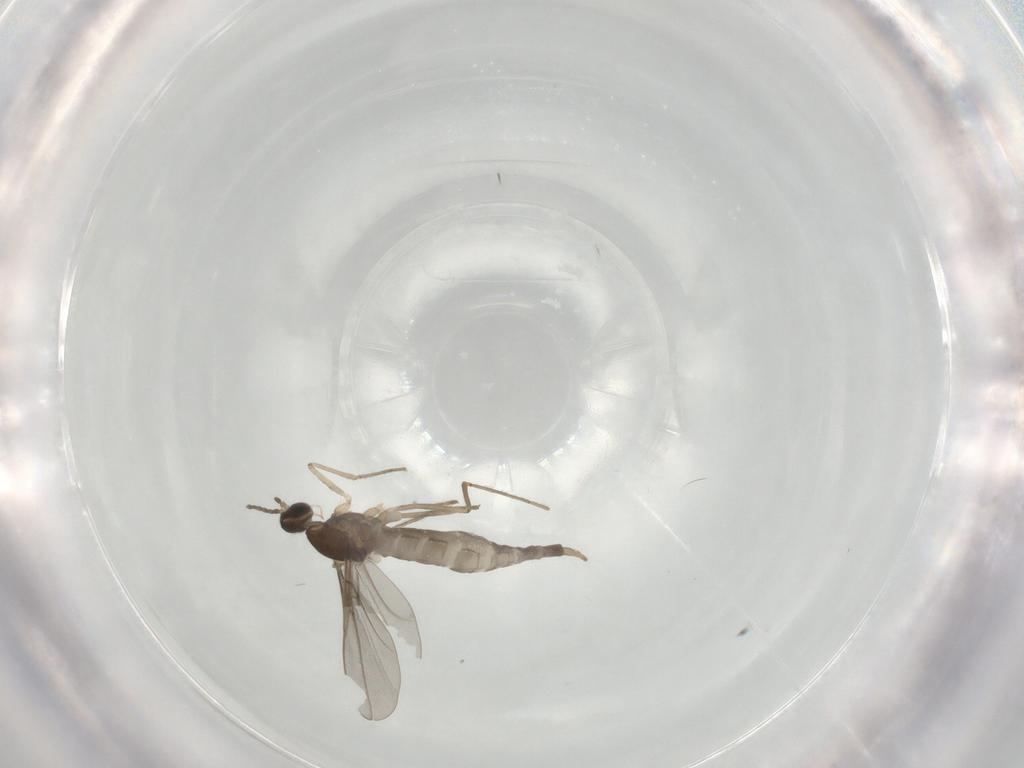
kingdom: Animalia
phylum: Arthropoda
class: Insecta
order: Diptera
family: Cecidomyiidae
